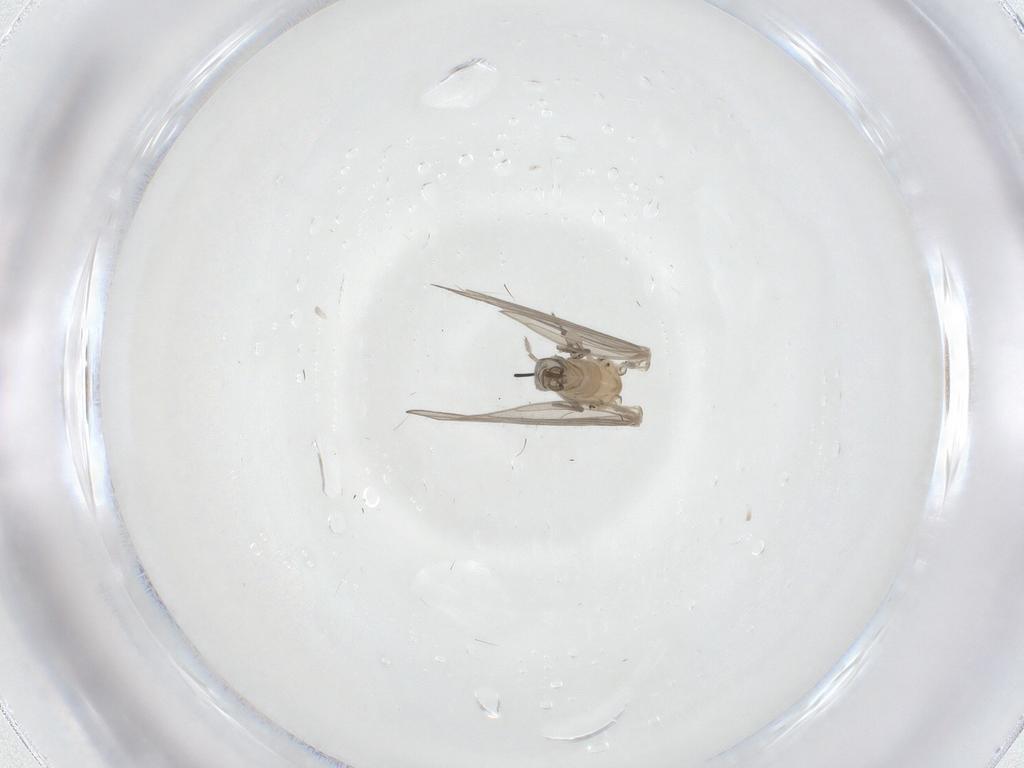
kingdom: Animalia
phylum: Arthropoda
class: Insecta
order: Diptera
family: Psychodidae
